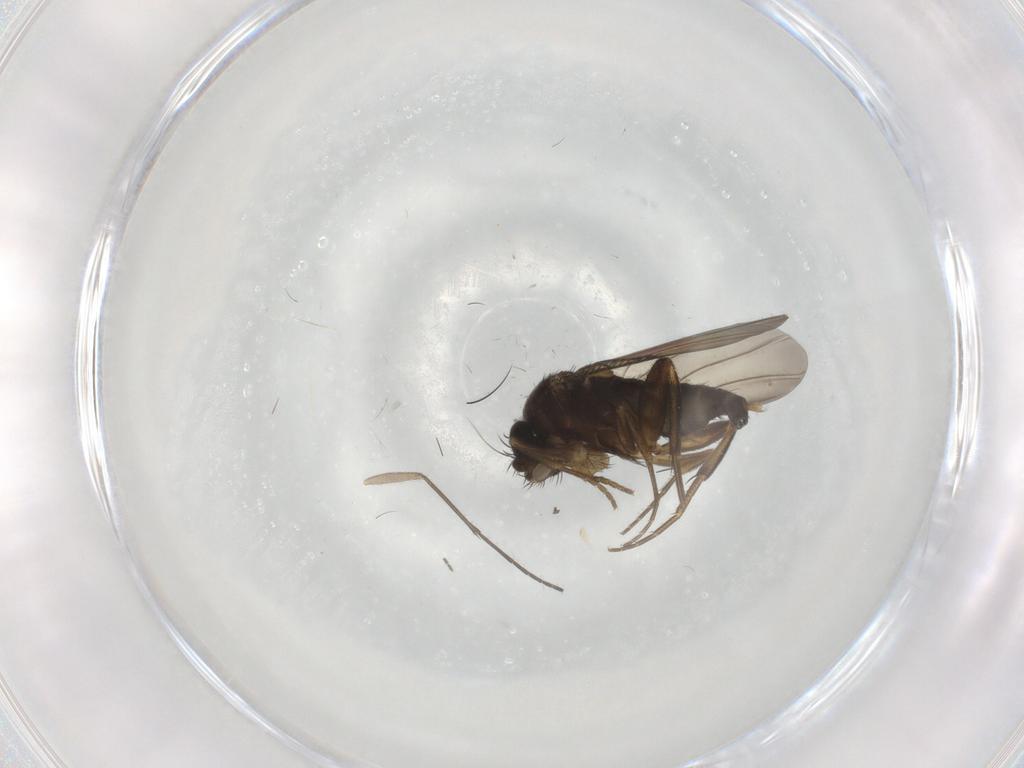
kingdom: Animalia
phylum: Arthropoda
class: Insecta
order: Diptera
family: Phoridae
